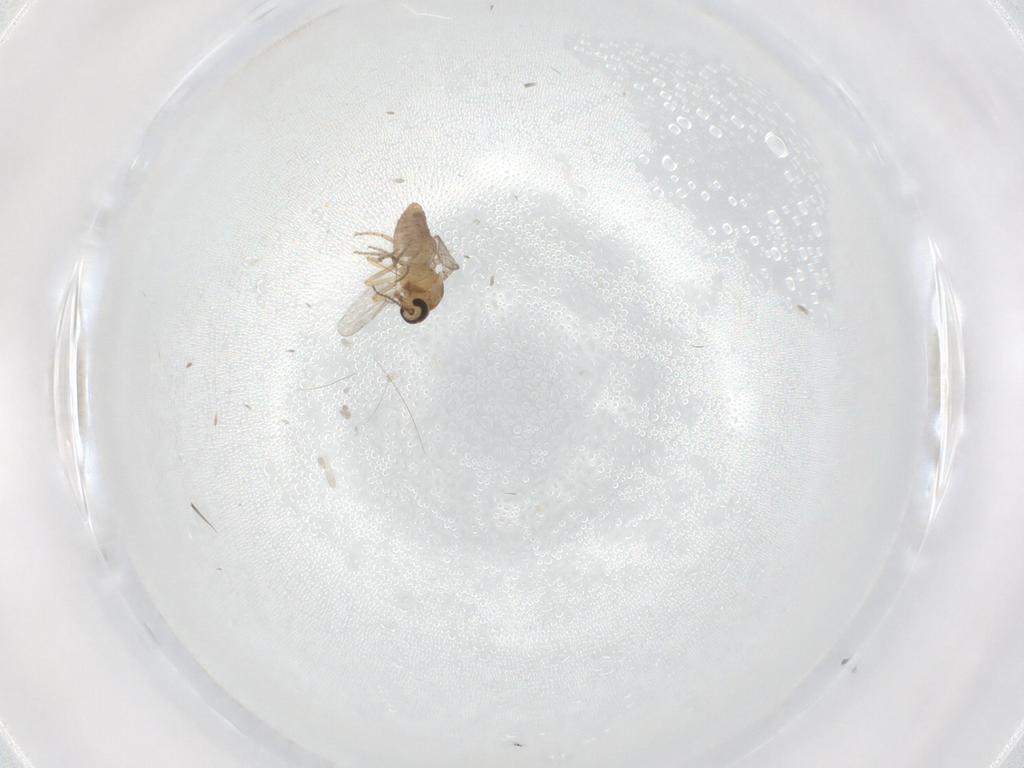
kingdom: Animalia
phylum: Arthropoda
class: Insecta
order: Diptera
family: Ceratopogonidae
